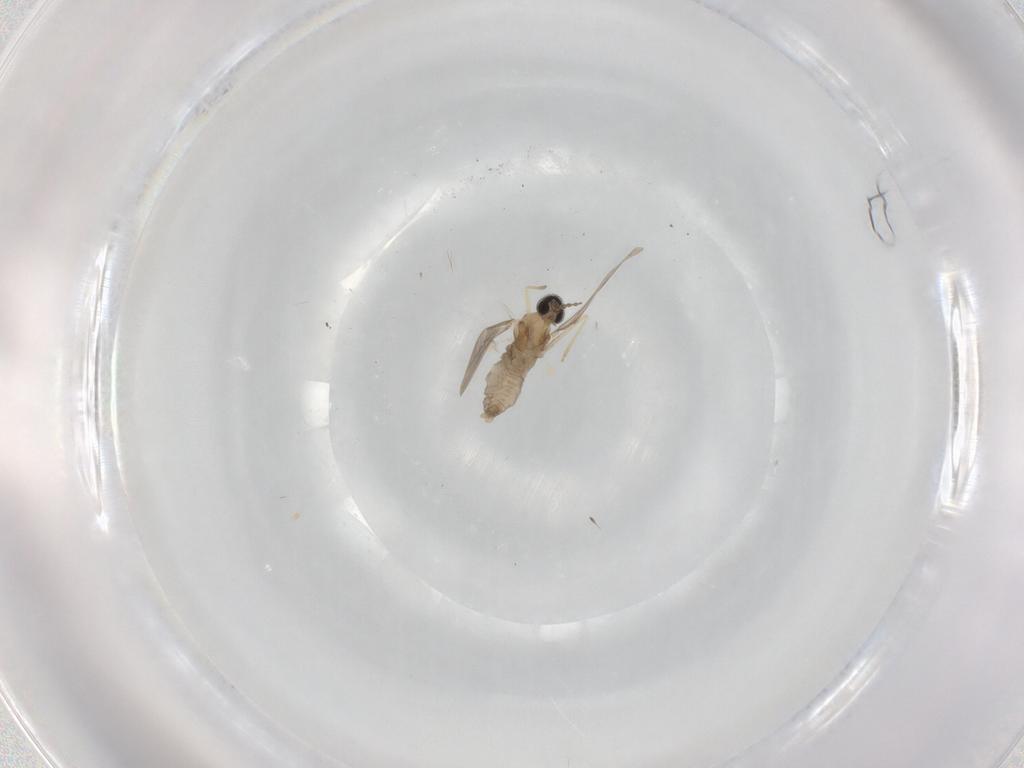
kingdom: Animalia
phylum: Arthropoda
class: Insecta
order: Diptera
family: Cecidomyiidae
